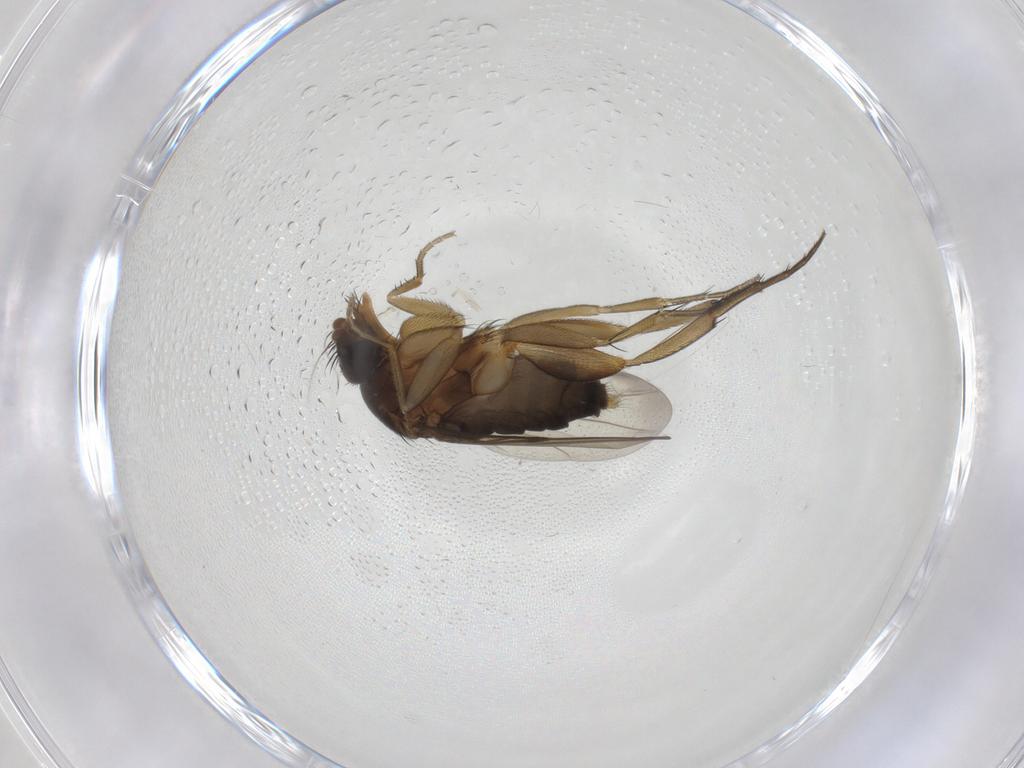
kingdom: Animalia
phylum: Arthropoda
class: Insecta
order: Diptera
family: Phoridae
